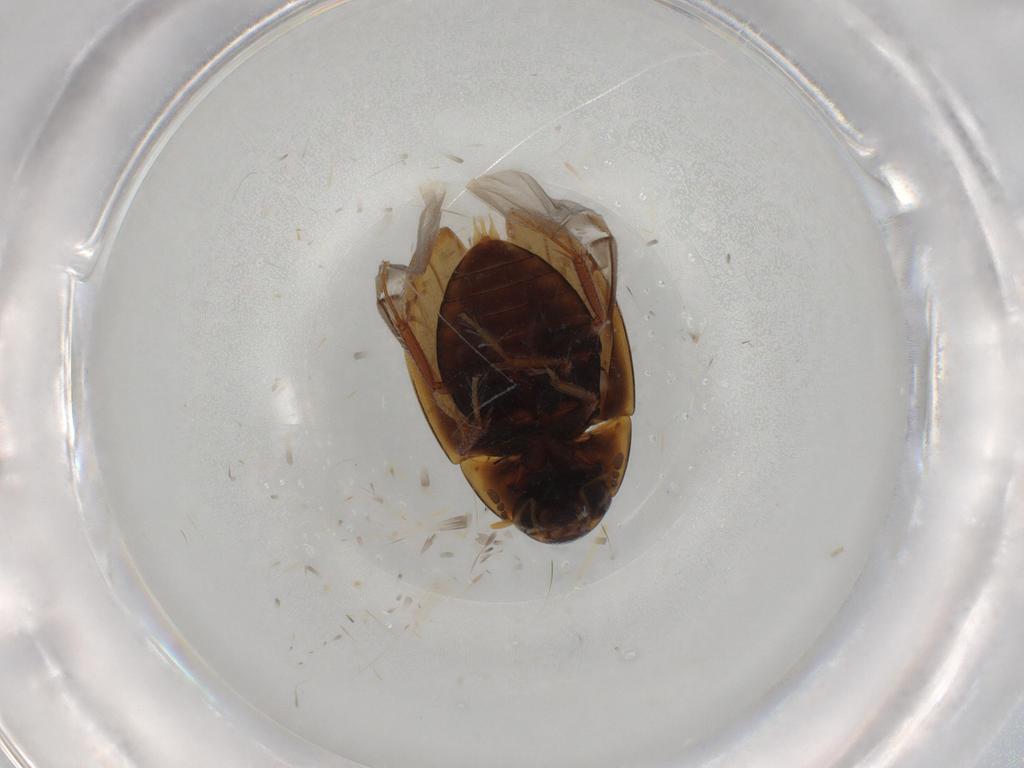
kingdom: Animalia
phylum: Arthropoda
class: Insecta
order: Coleoptera
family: Hydrophilidae
